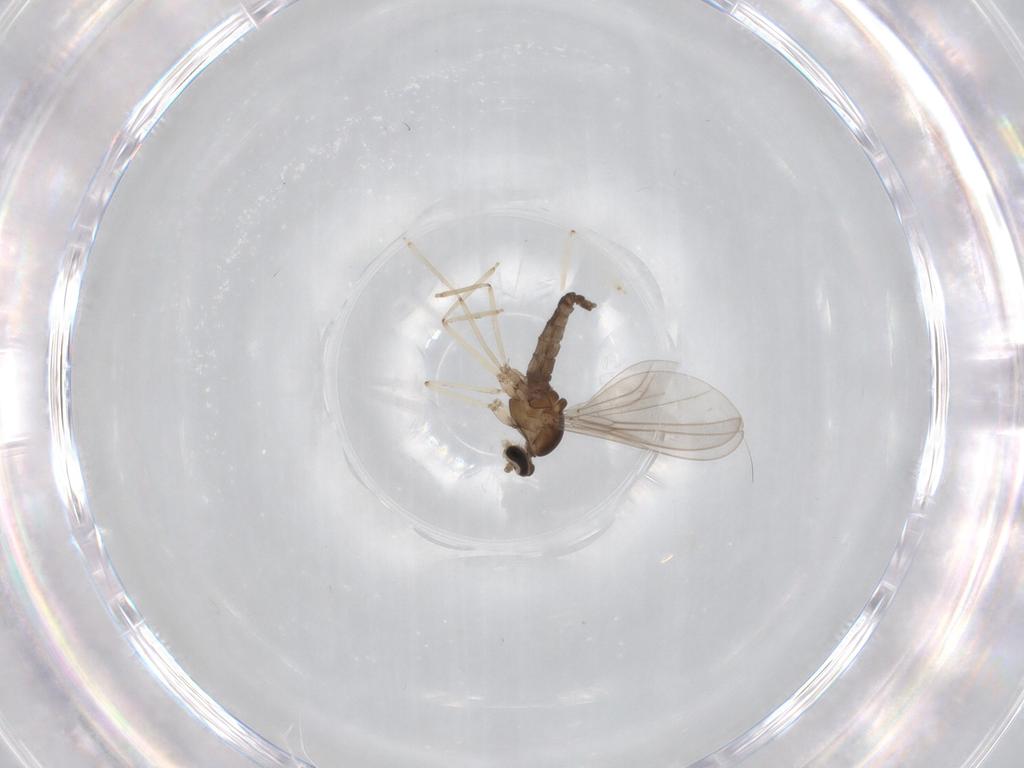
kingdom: Animalia
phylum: Arthropoda
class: Insecta
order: Diptera
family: Cecidomyiidae
